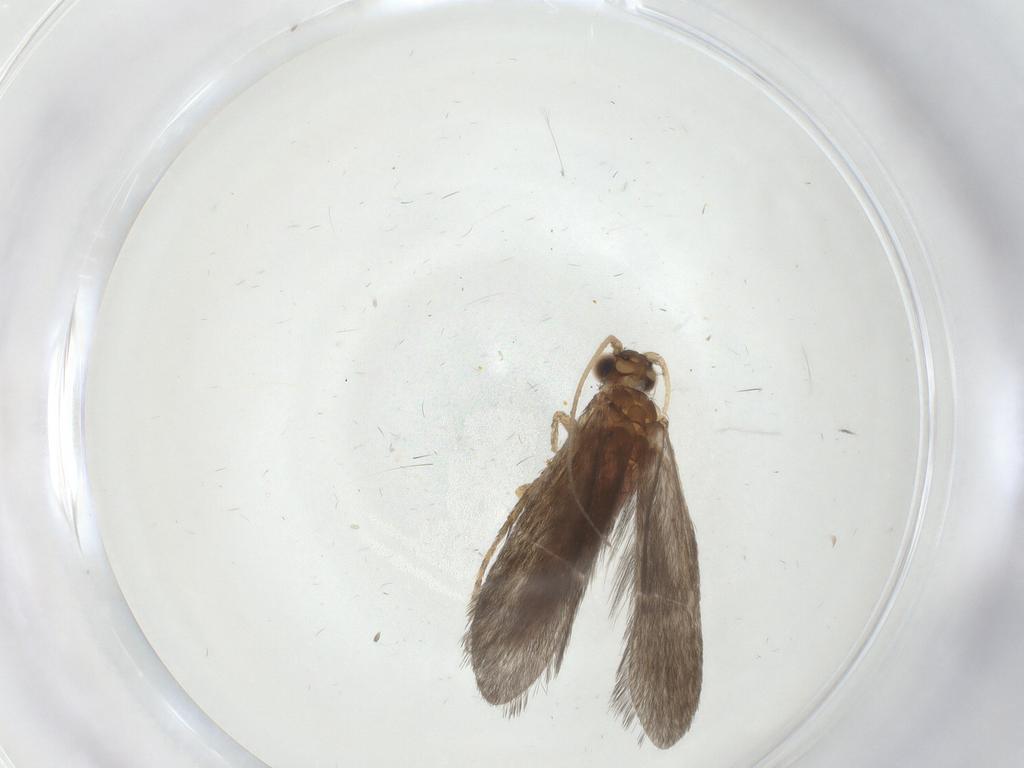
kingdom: Animalia
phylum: Arthropoda
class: Insecta
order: Trichoptera
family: Glossosomatidae
